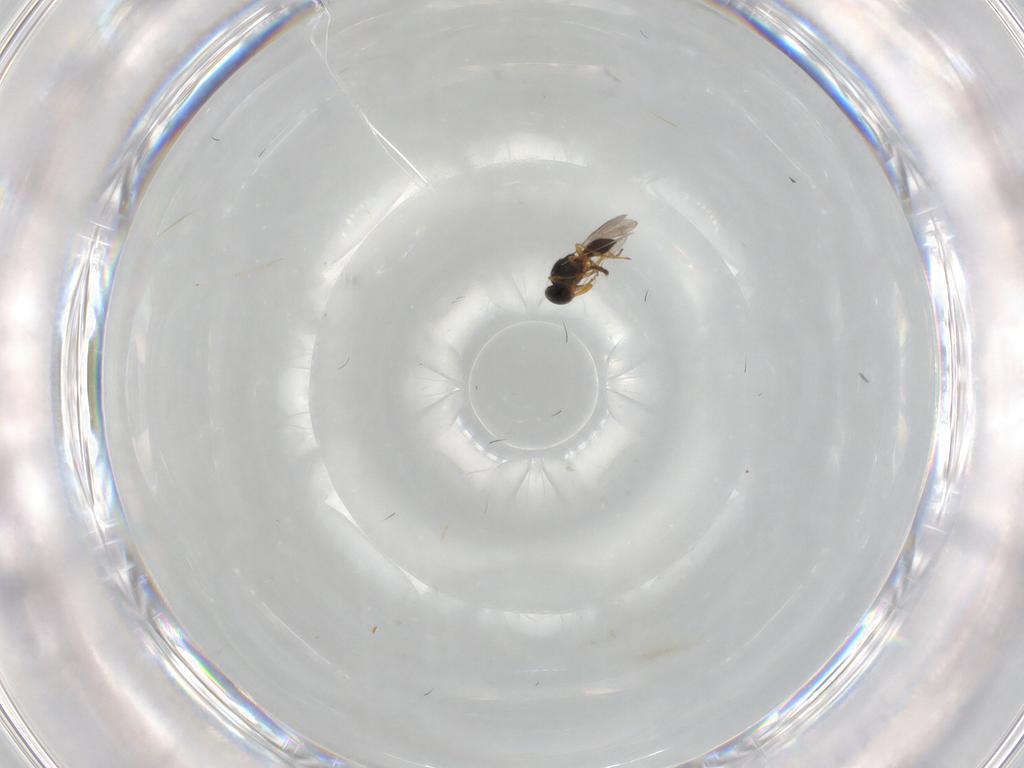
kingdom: Animalia
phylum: Arthropoda
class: Insecta
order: Hymenoptera
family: Platygastridae
